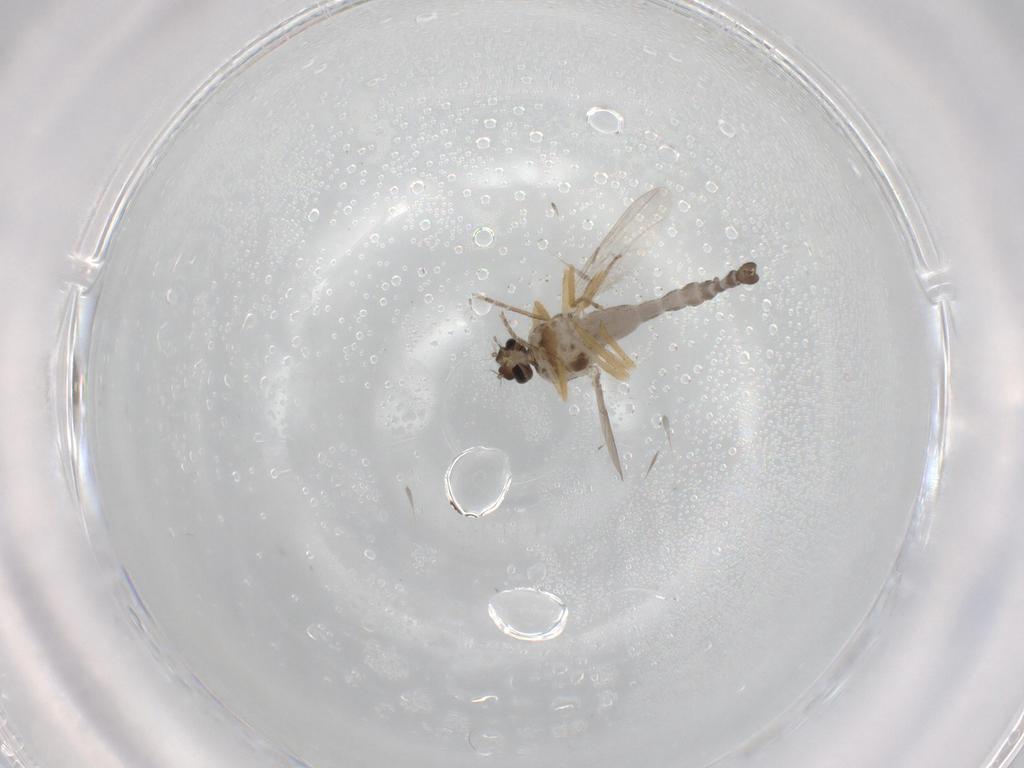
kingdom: Animalia
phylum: Arthropoda
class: Insecta
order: Diptera
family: Ceratopogonidae
